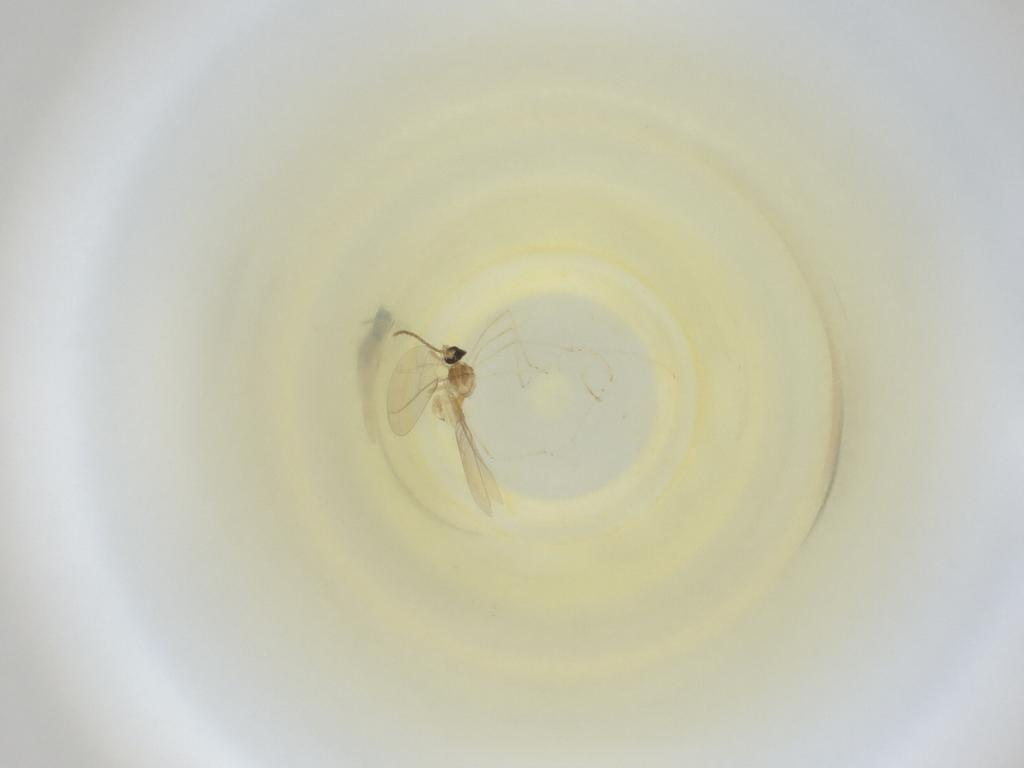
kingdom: Animalia
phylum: Arthropoda
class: Insecta
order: Diptera
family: Cecidomyiidae
